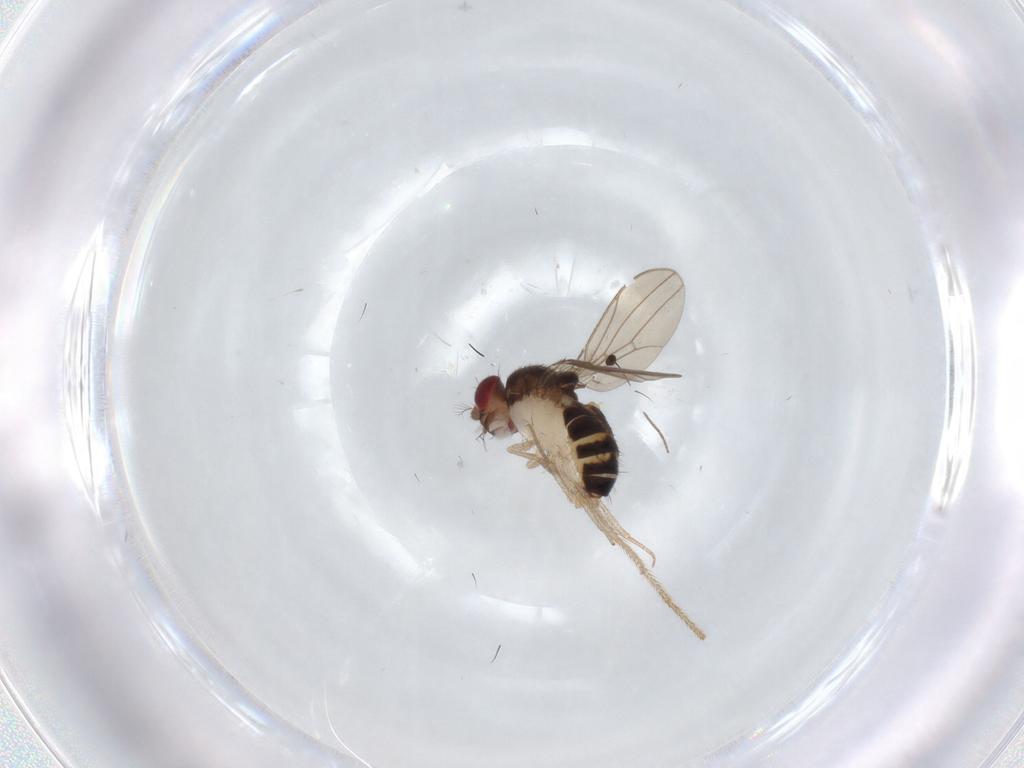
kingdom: Animalia
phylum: Arthropoda
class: Insecta
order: Diptera
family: Drosophilidae
